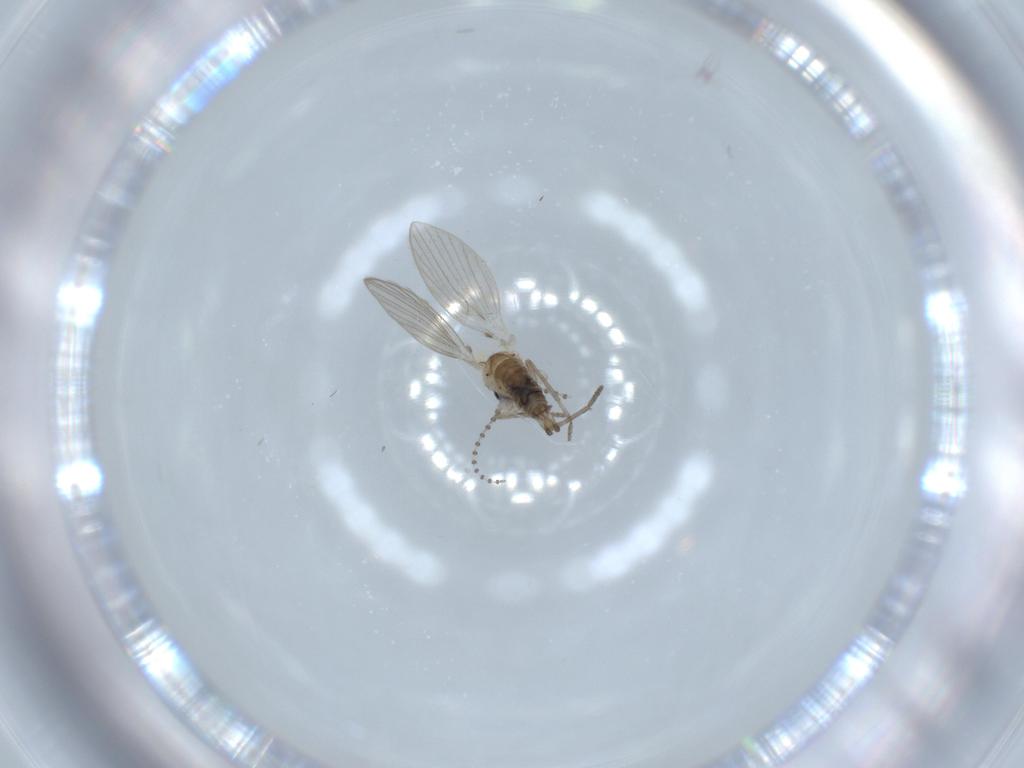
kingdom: Animalia
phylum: Arthropoda
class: Insecta
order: Diptera
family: Psychodidae
